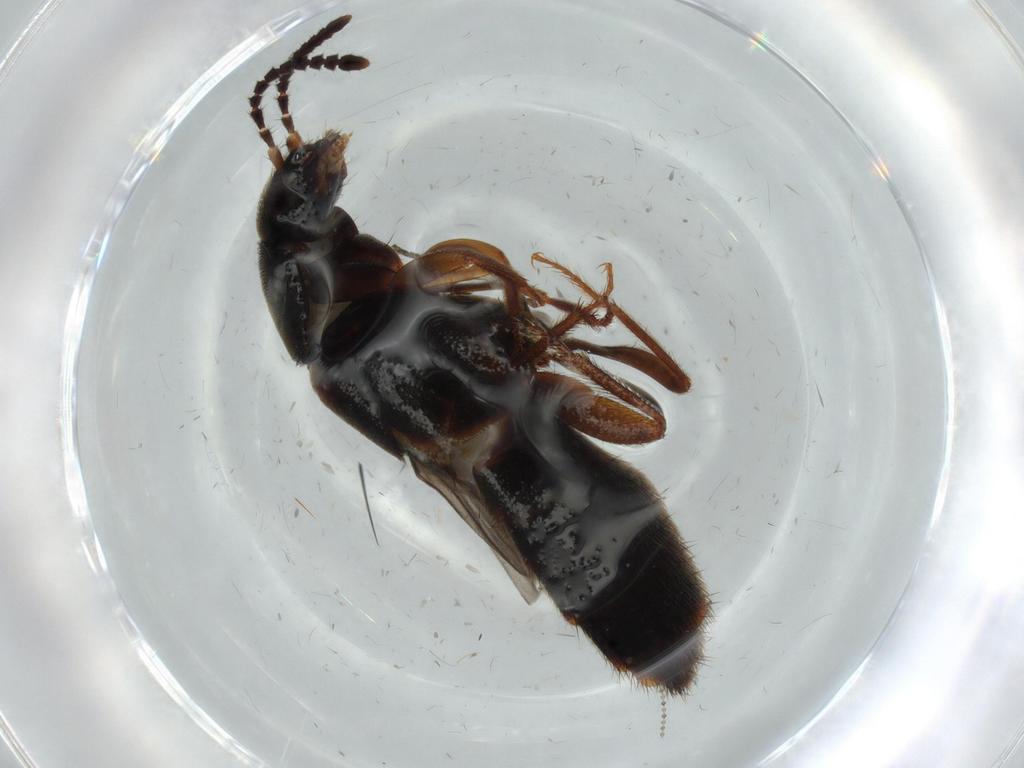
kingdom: Animalia
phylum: Arthropoda
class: Insecta
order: Coleoptera
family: Staphylinidae
